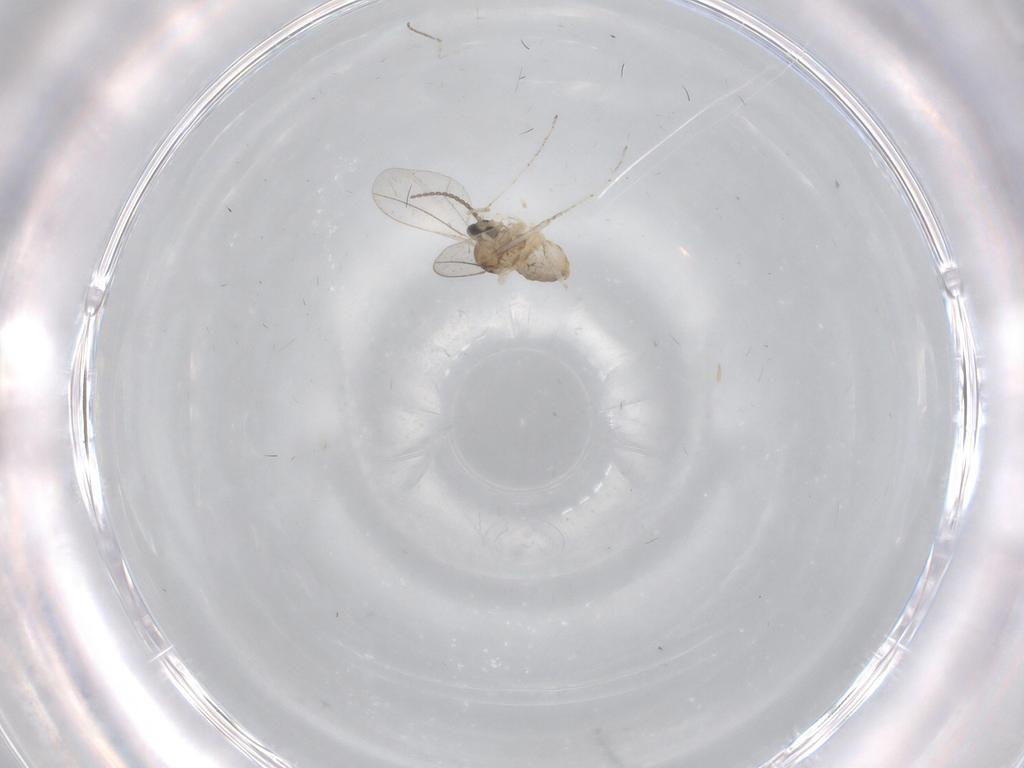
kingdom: Animalia
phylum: Arthropoda
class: Insecta
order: Diptera
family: Cecidomyiidae
